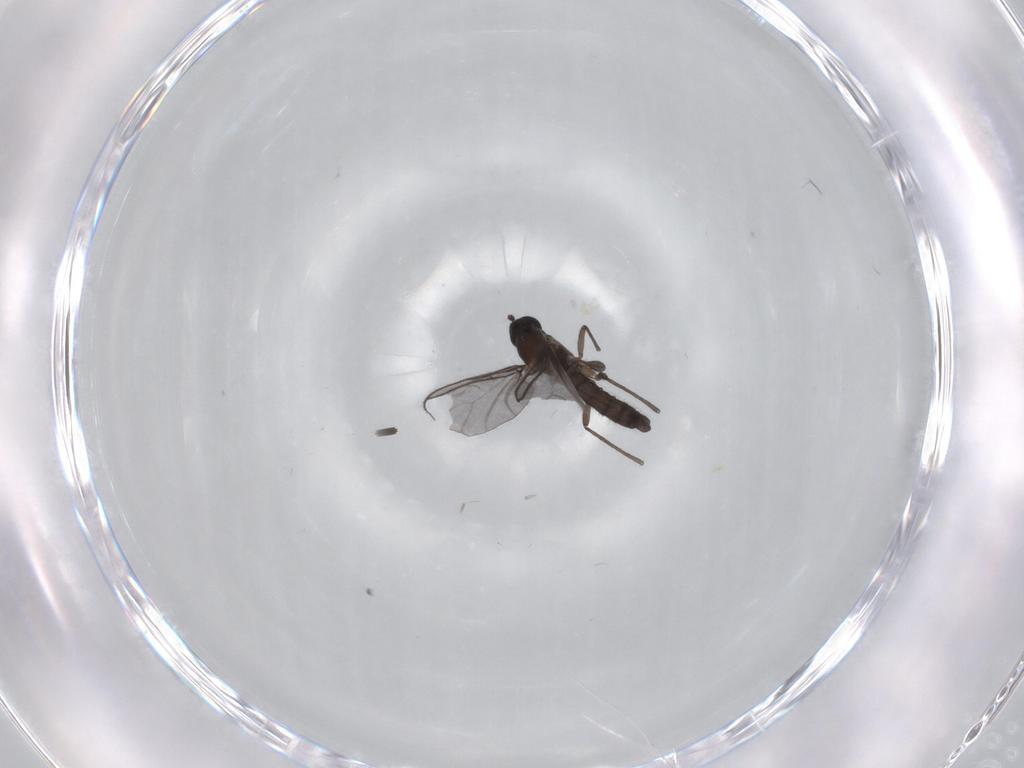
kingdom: Animalia
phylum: Arthropoda
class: Insecta
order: Diptera
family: Sciaridae
